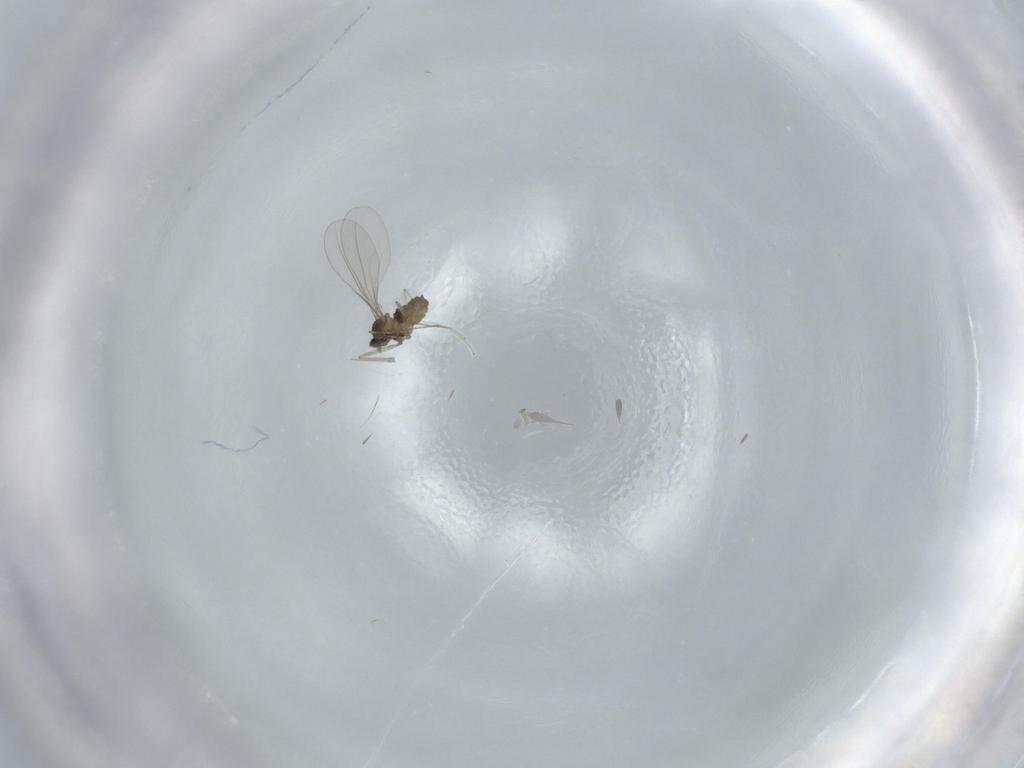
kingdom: Animalia
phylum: Arthropoda
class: Insecta
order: Diptera
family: Cecidomyiidae
